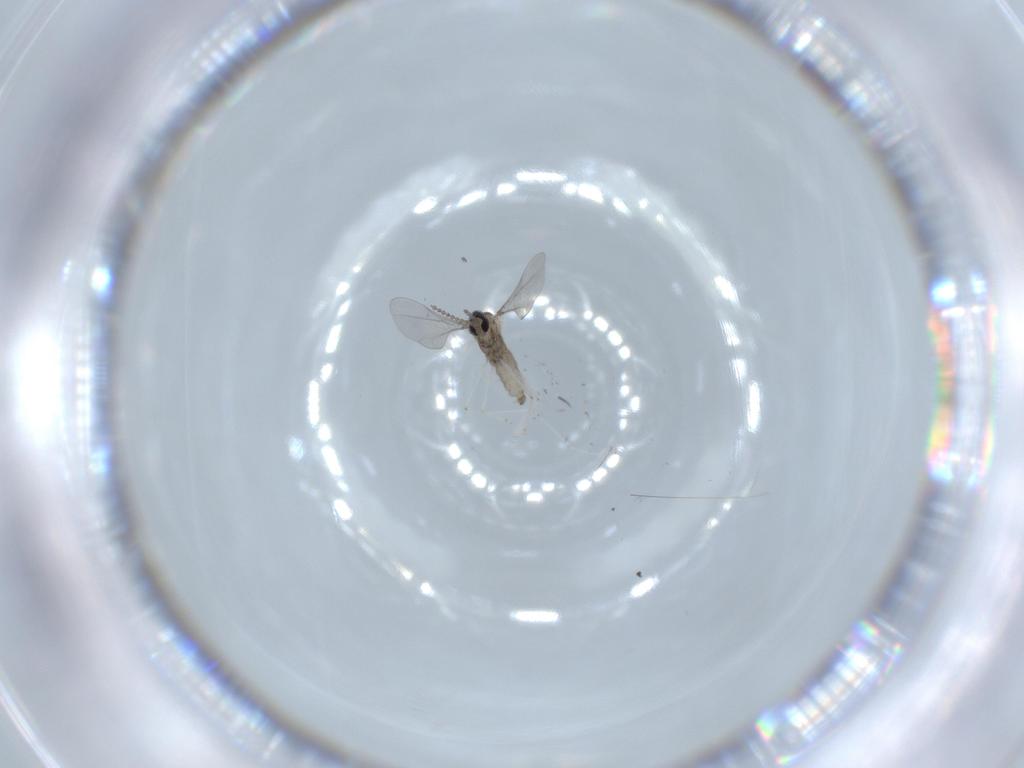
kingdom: Animalia
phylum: Arthropoda
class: Insecta
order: Diptera
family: Cecidomyiidae
